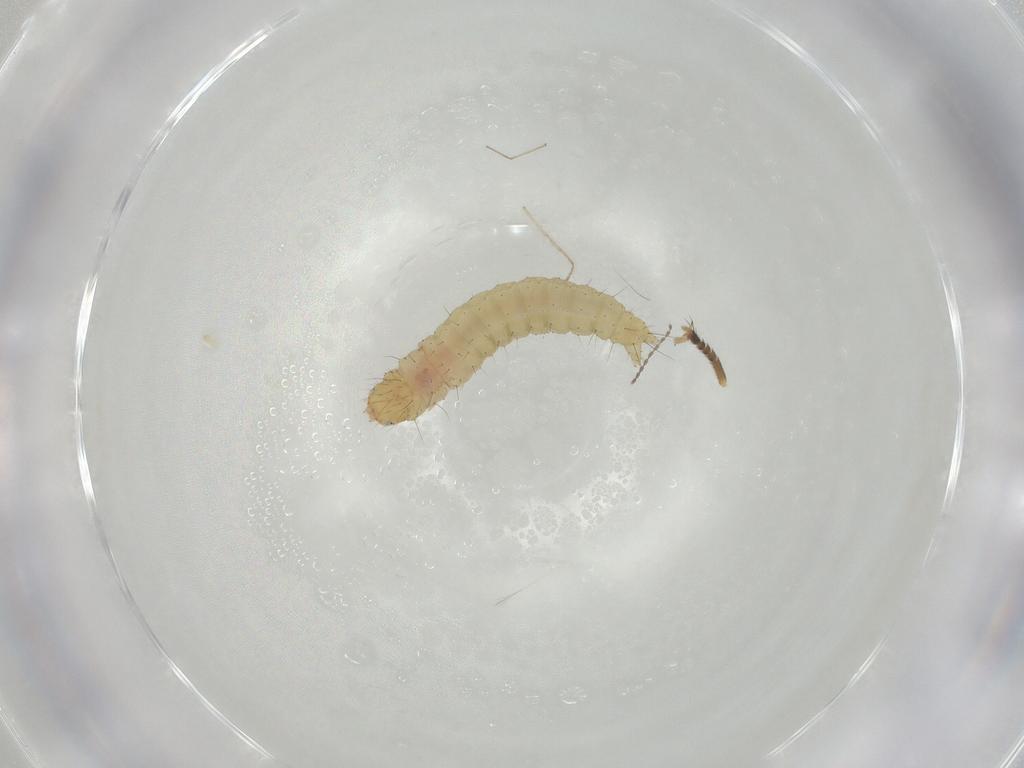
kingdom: Animalia
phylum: Arthropoda
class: Insecta
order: Lepidoptera
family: Gelechiidae
